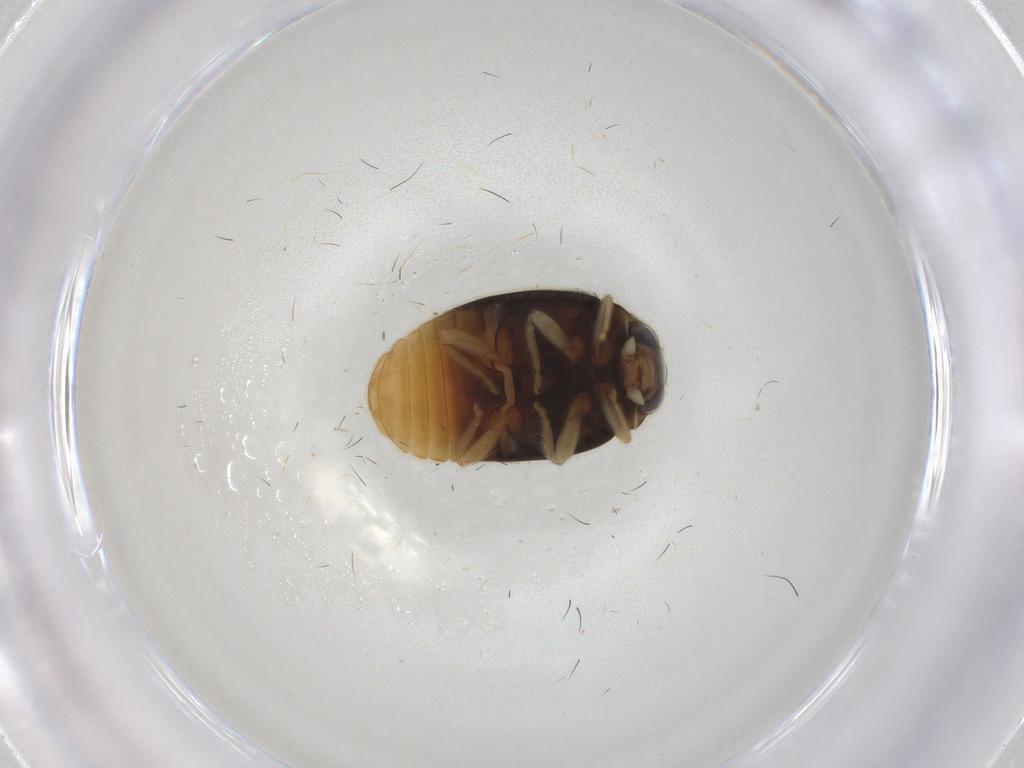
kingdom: Animalia
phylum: Arthropoda
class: Insecta
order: Coleoptera
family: Coccinellidae
